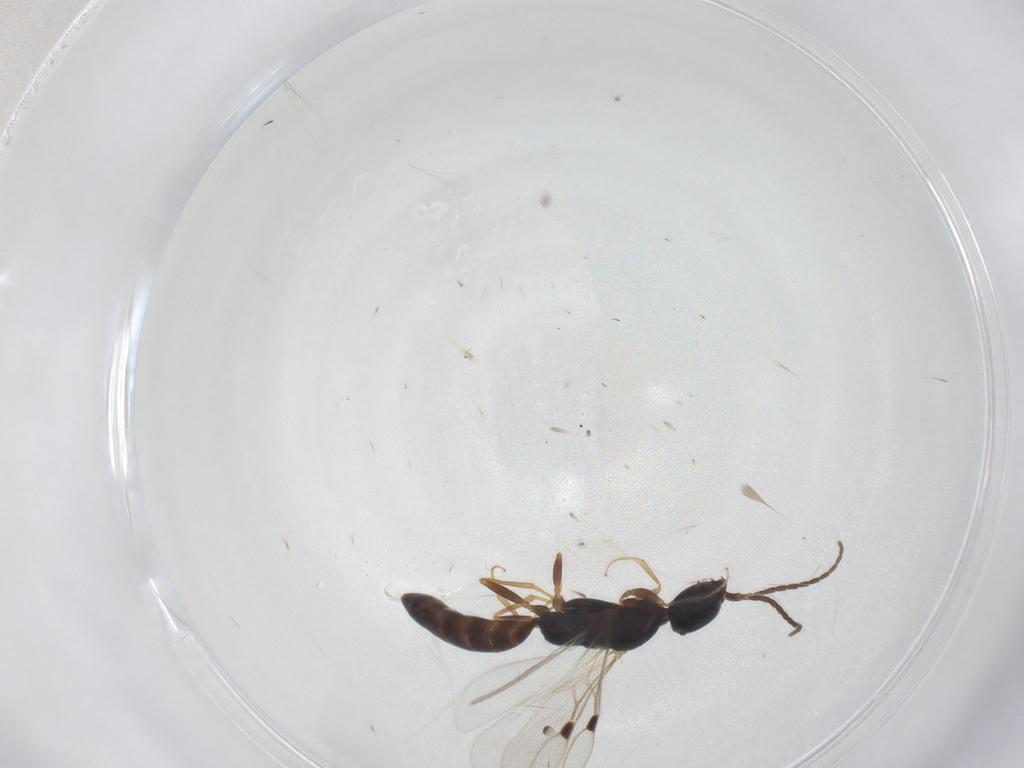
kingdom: Animalia
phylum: Arthropoda
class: Insecta
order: Hymenoptera
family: Bethylidae
